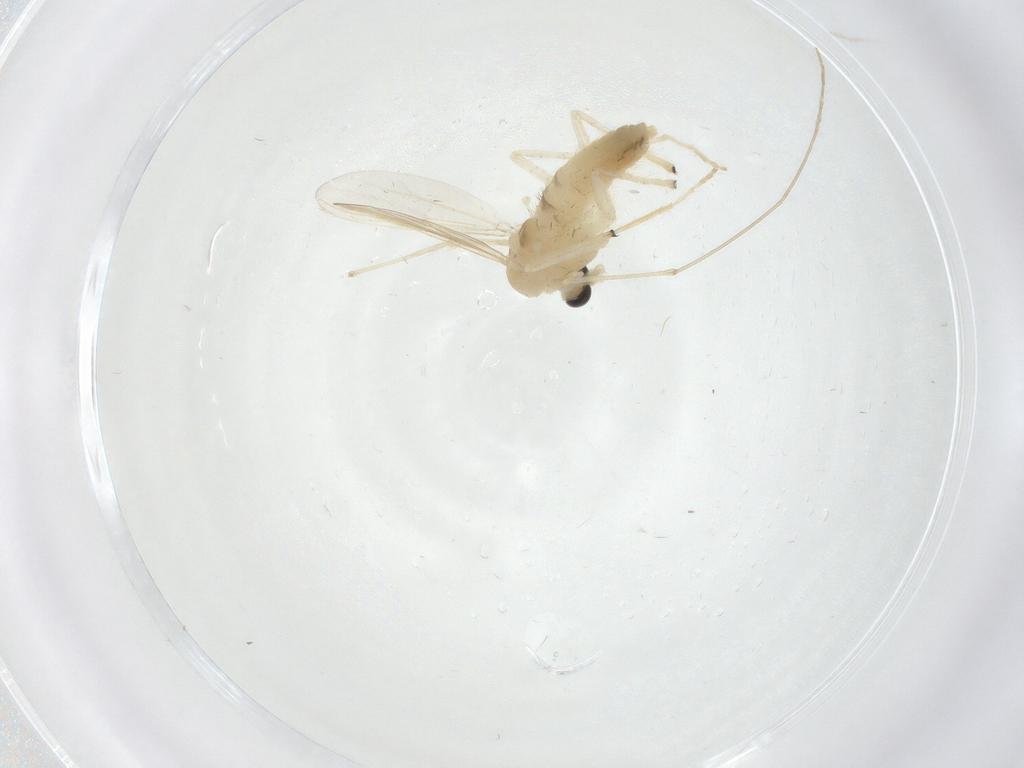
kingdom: Animalia
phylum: Arthropoda
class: Insecta
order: Diptera
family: Chironomidae
